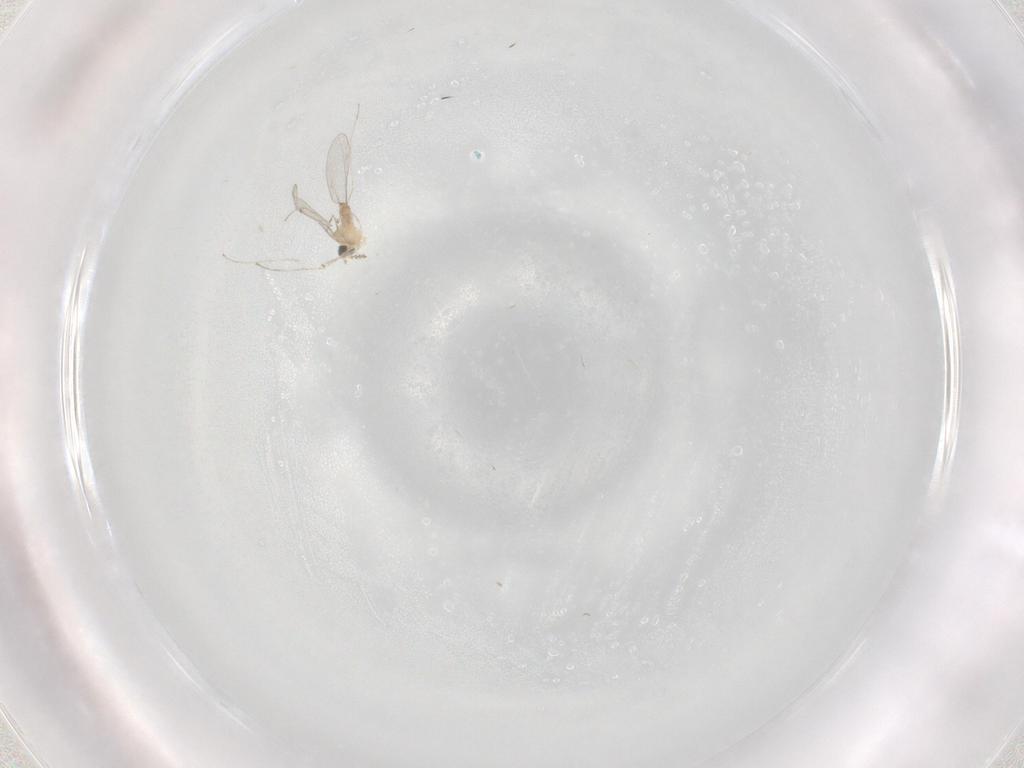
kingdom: Animalia
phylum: Arthropoda
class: Insecta
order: Diptera
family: Cecidomyiidae
